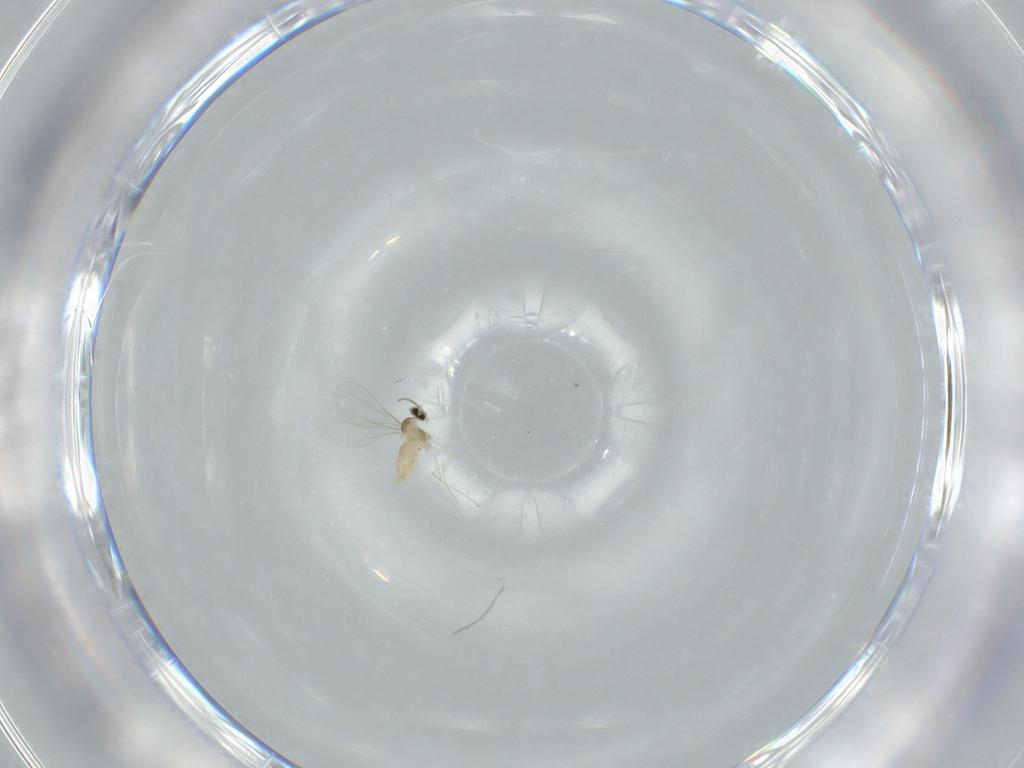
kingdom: Animalia
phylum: Arthropoda
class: Insecta
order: Diptera
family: Cecidomyiidae
